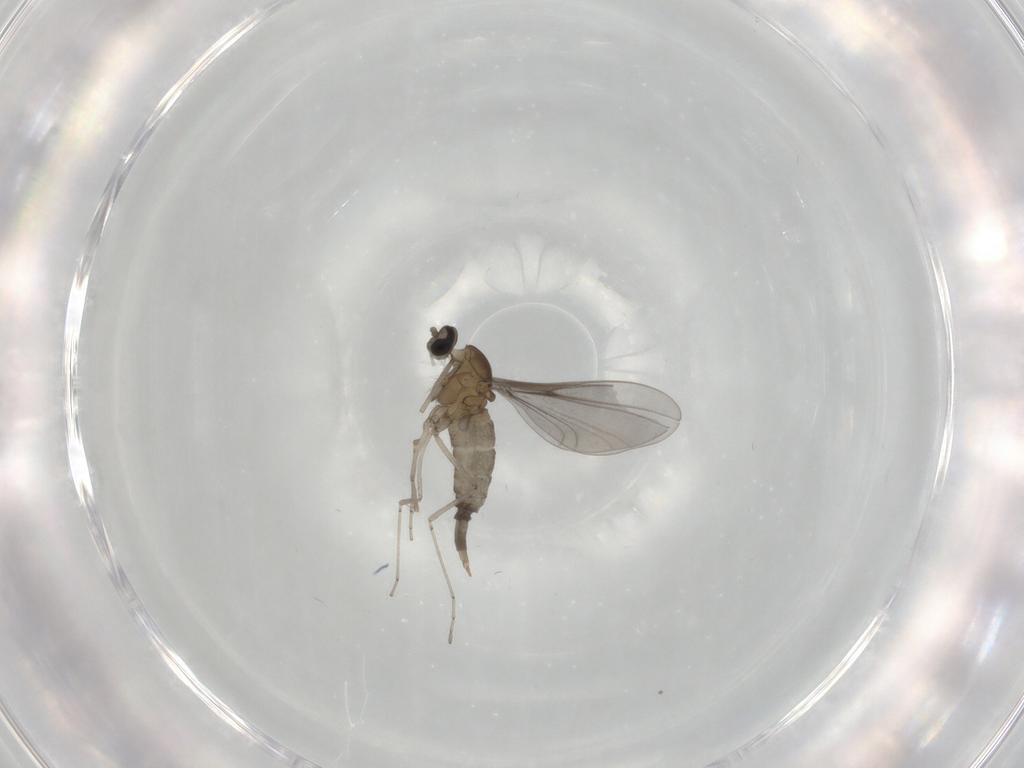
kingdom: Animalia
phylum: Arthropoda
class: Insecta
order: Diptera
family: Cecidomyiidae
